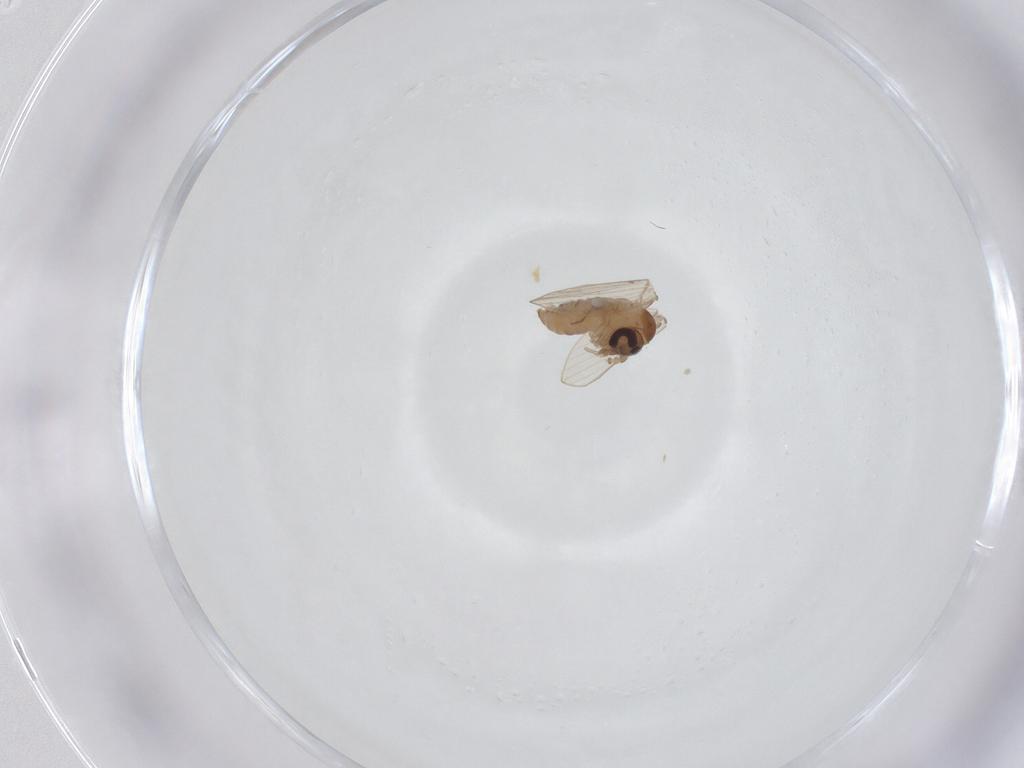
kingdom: Animalia
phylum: Arthropoda
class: Insecta
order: Diptera
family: Psychodidae
